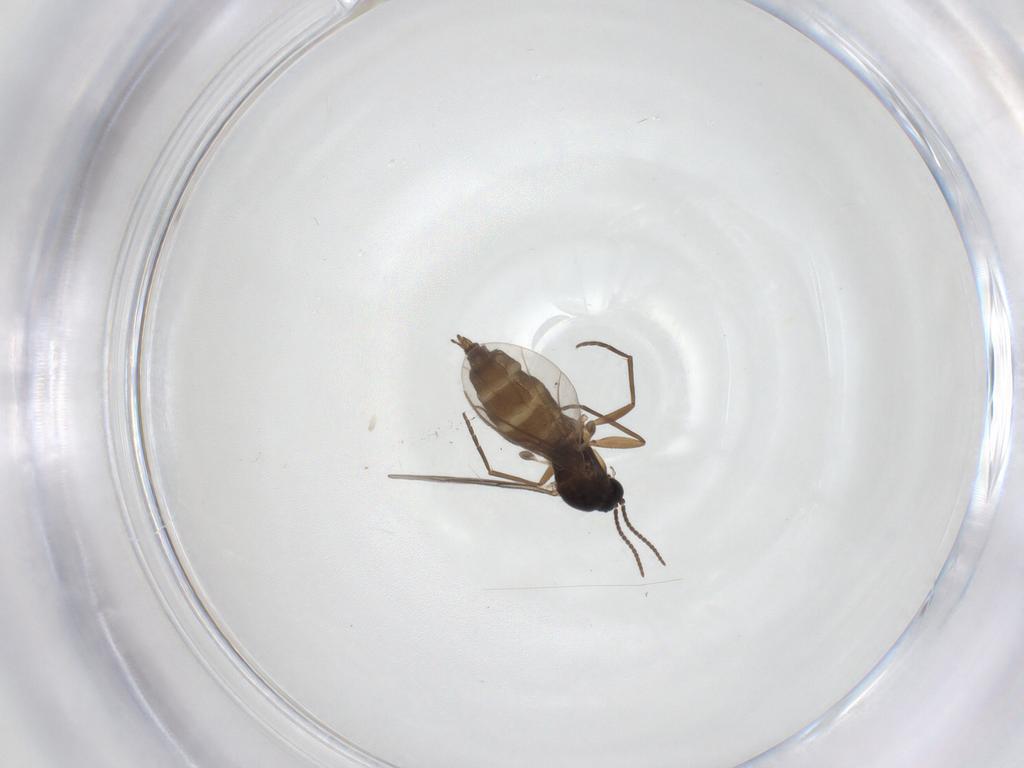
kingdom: Animalia
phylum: Arthropoda
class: Insecta
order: Diptera
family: Sciaridae
